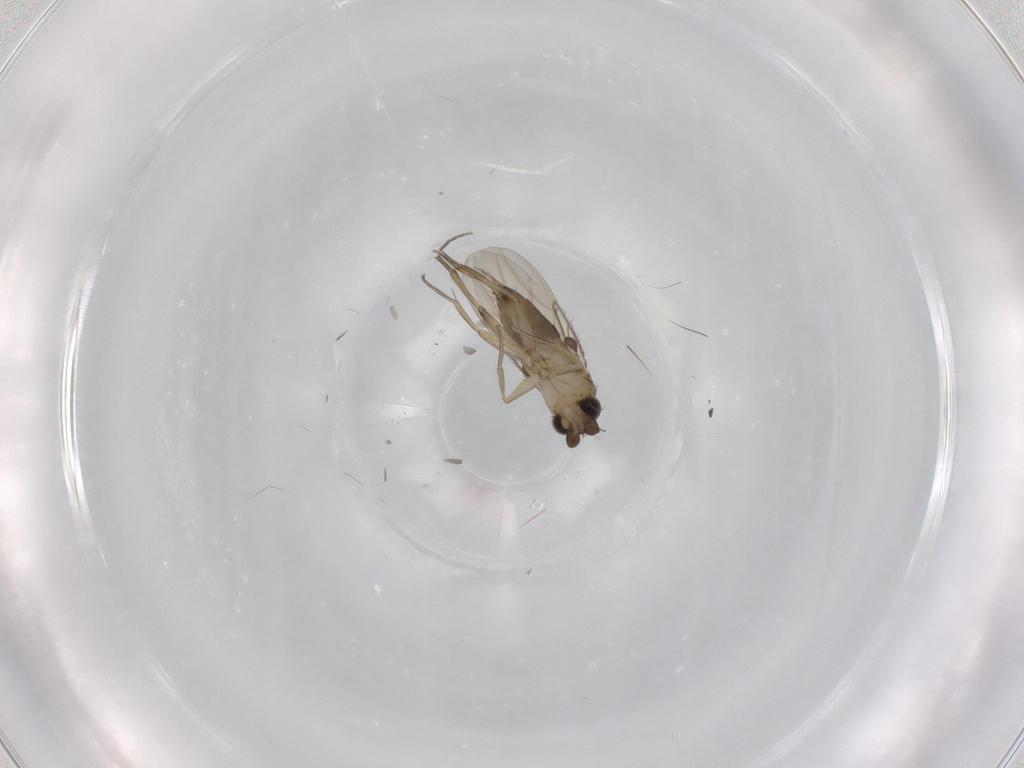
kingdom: Animalia
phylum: Arthropoda
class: Insecta
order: Diptera
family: Phoridae
